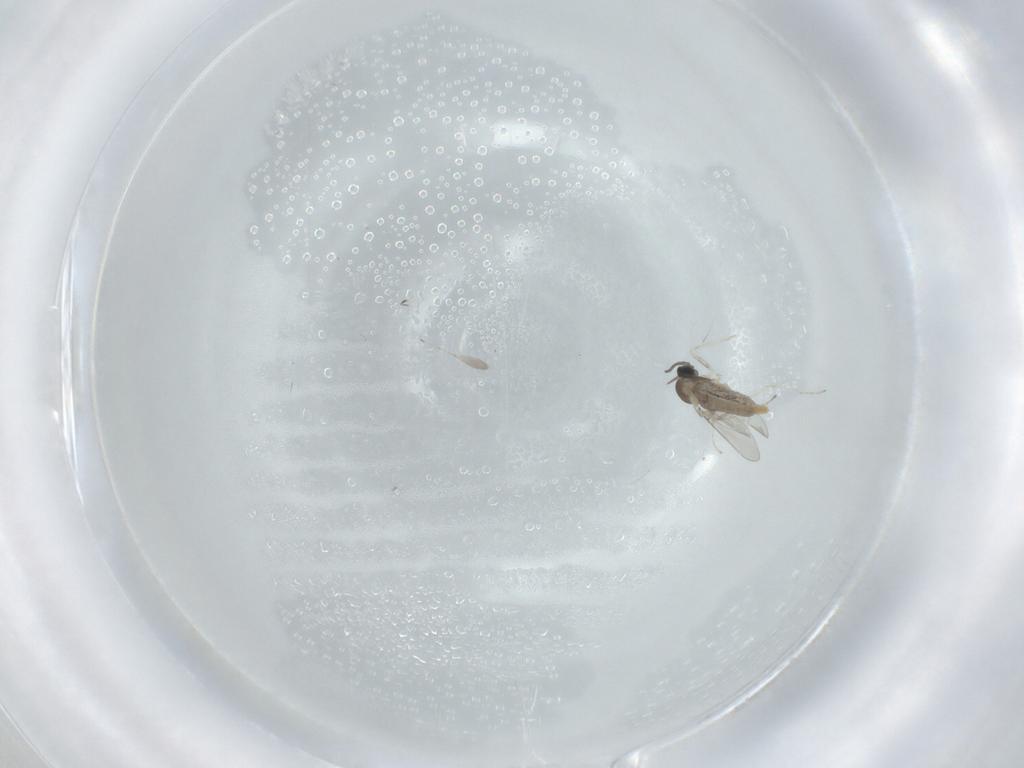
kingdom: Animalia
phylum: Arthropoda
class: Insecta
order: Diptera
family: Cecidomyiidae
